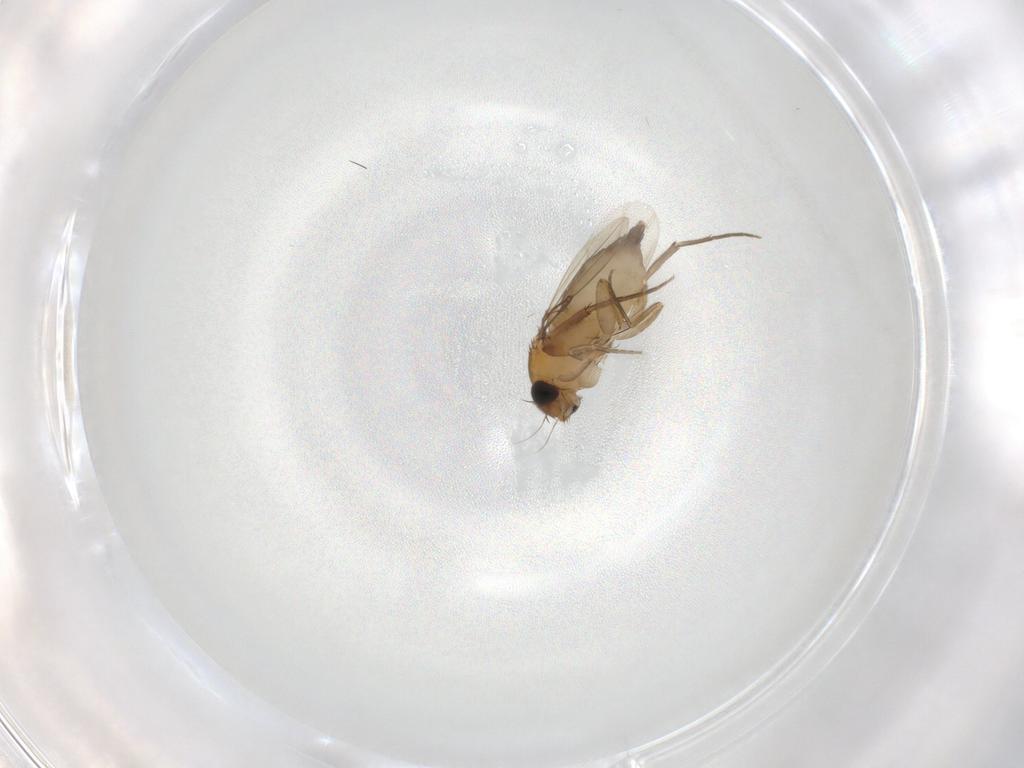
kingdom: Animalia
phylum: Arthropoda
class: Insecta
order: Diptera
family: Phoridae
